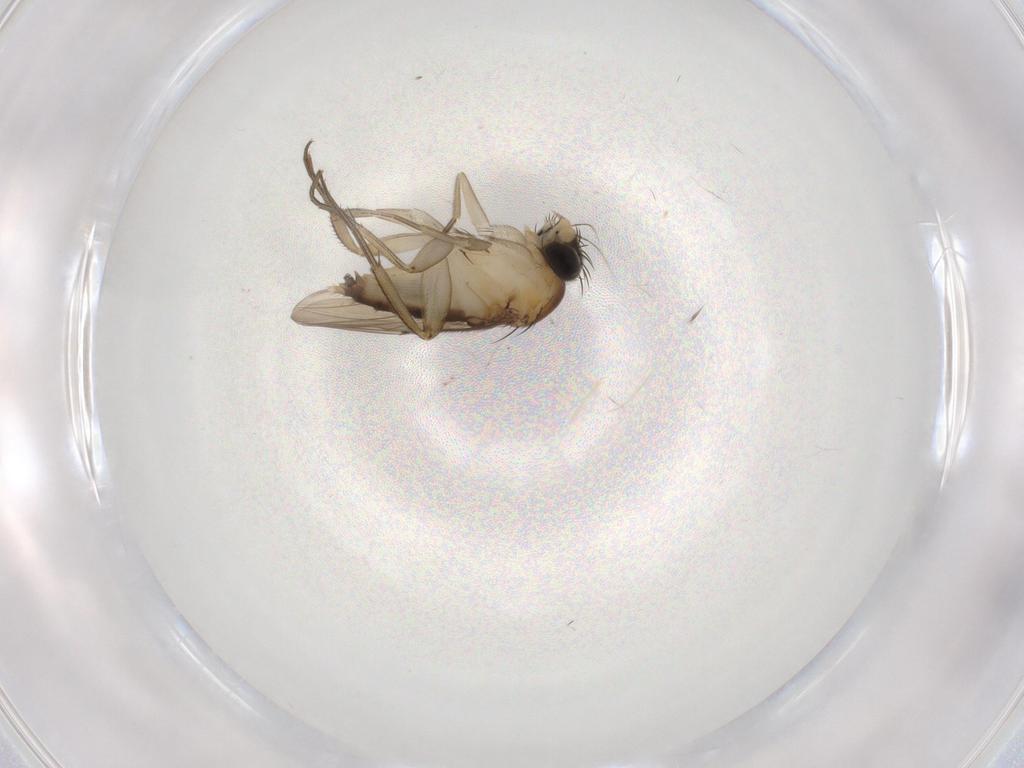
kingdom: Animalia
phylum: Arthropoda
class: Insecta
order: Diptera
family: Phoridae
